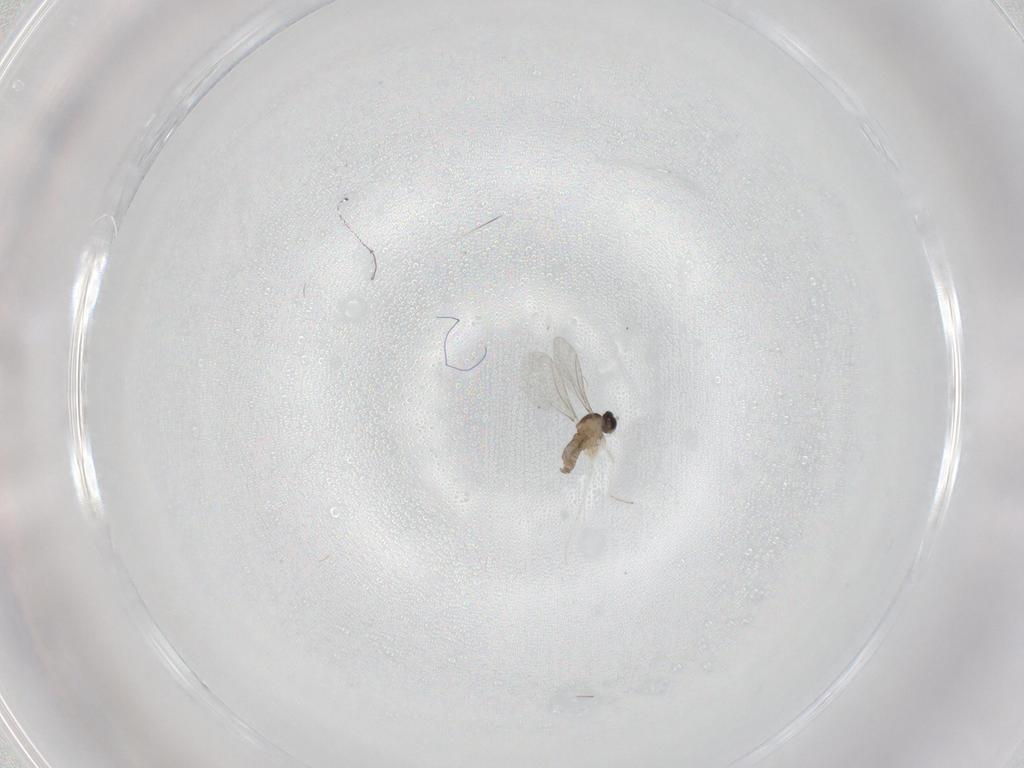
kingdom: Animalia
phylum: Arthropoda
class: Insecta
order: Diptera
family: Cecidomyiidae
